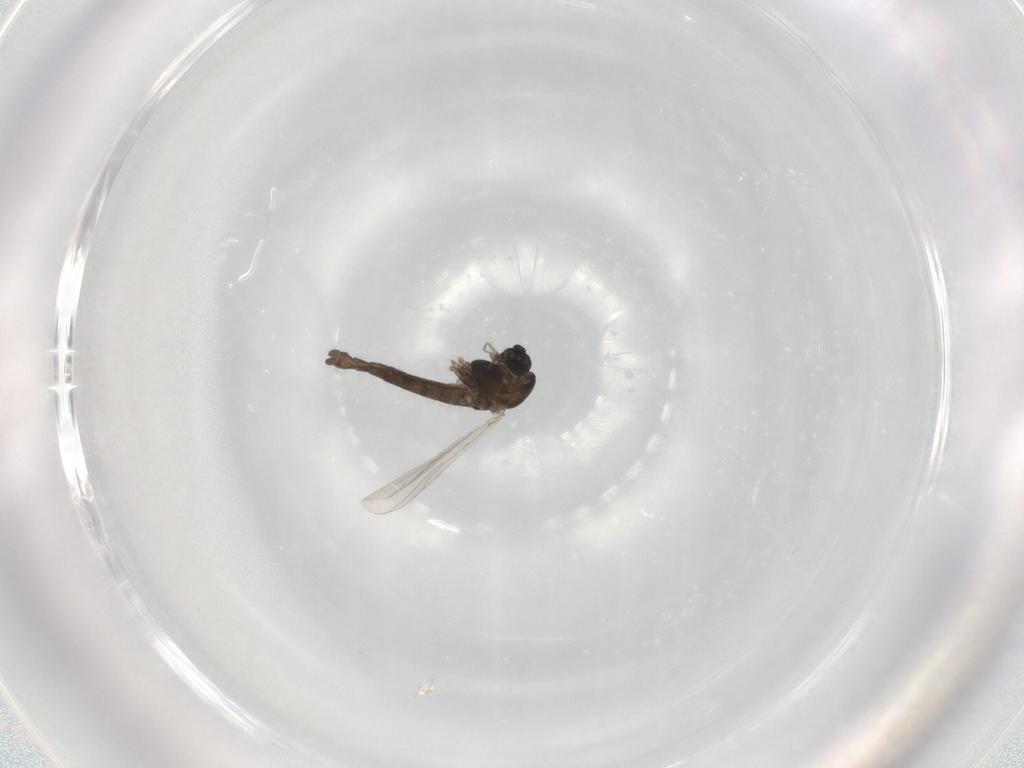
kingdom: Animalia
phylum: Arthropoda
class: Insecta
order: Diptera
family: Chironomidae
